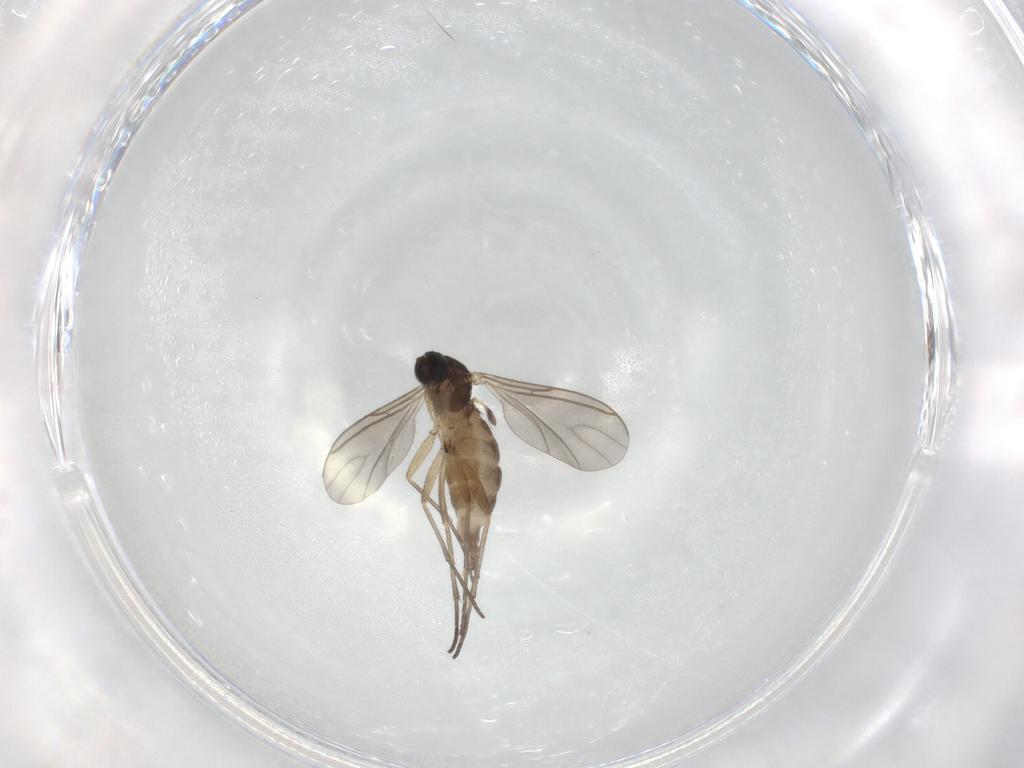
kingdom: Animalia
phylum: Arthropoda
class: Insecta
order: Diptera
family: Sciaridae
